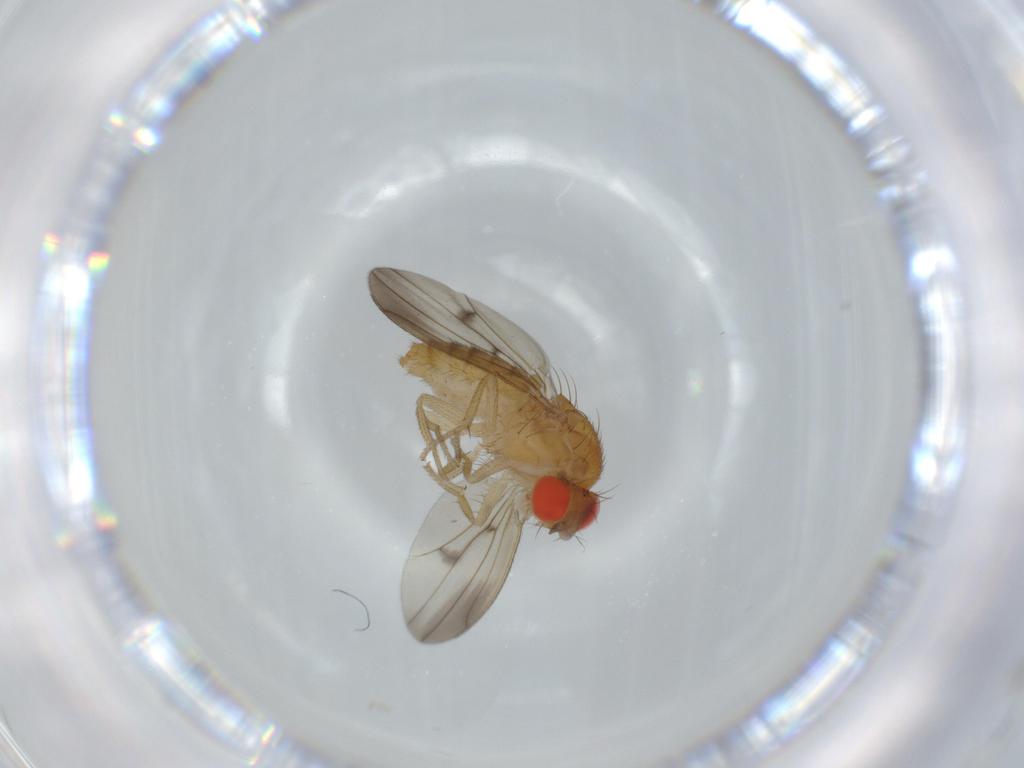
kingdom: Animalia
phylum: Arthropoda
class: Insecta
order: Diptera
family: Drosophilidae
